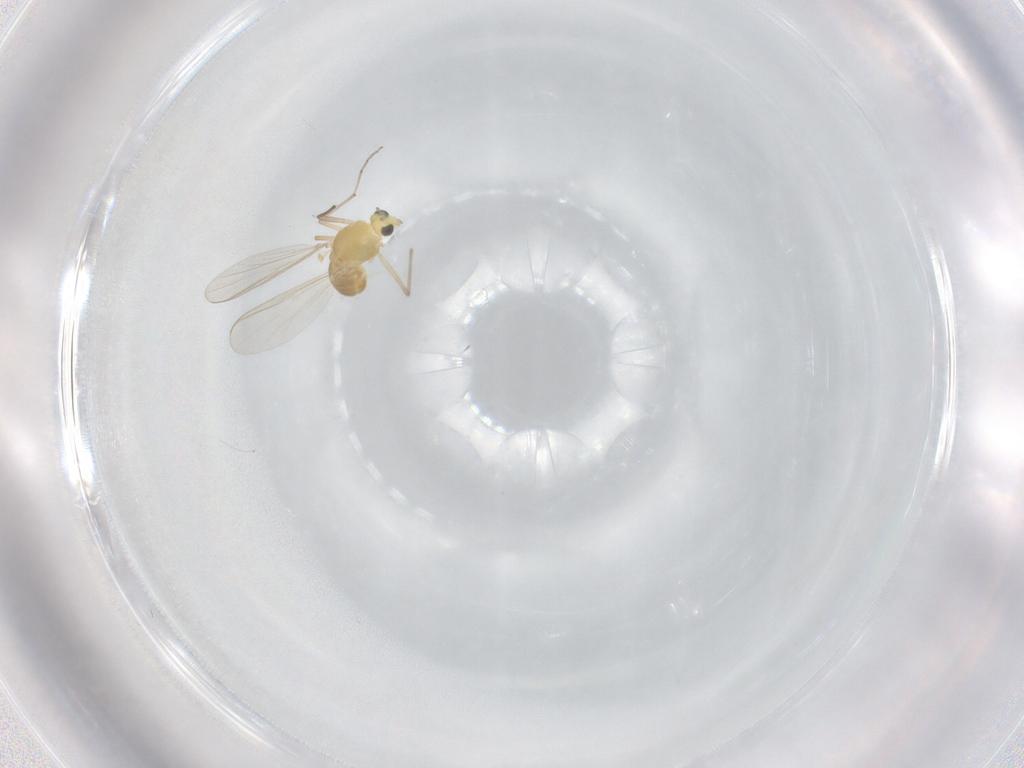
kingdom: Animalia
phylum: Arthropoda
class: Insecta
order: Diptera
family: Chironomidae
